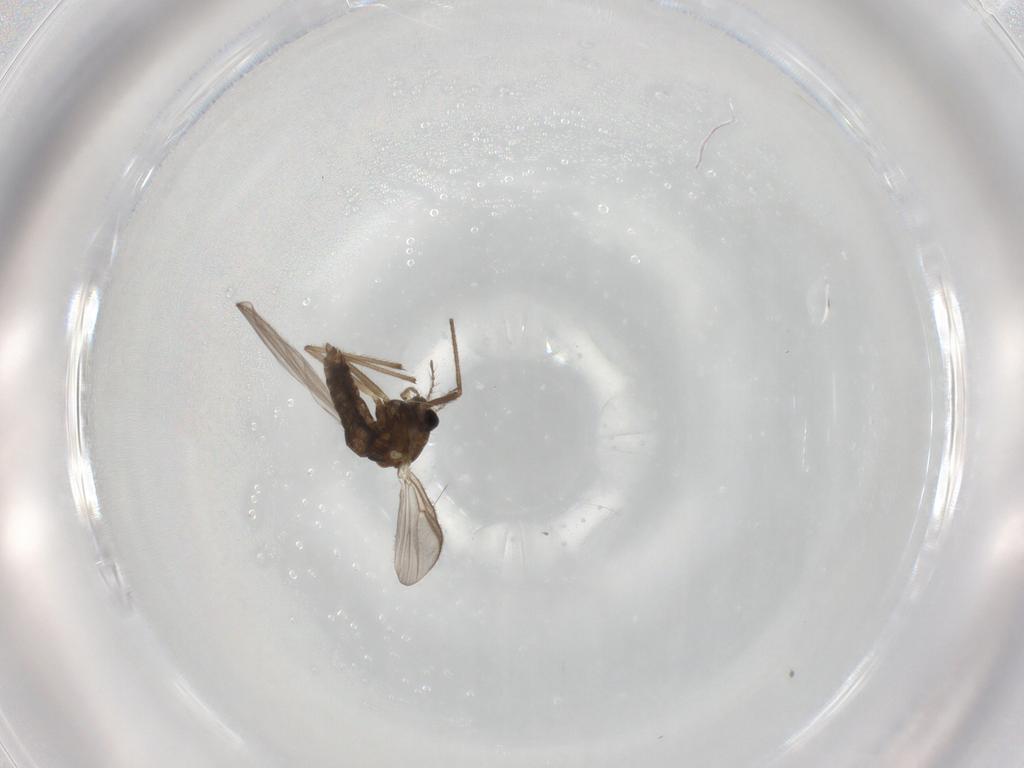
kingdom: Animalia
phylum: Arthropoda
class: Insecta
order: Diptera
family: Chironomidae
